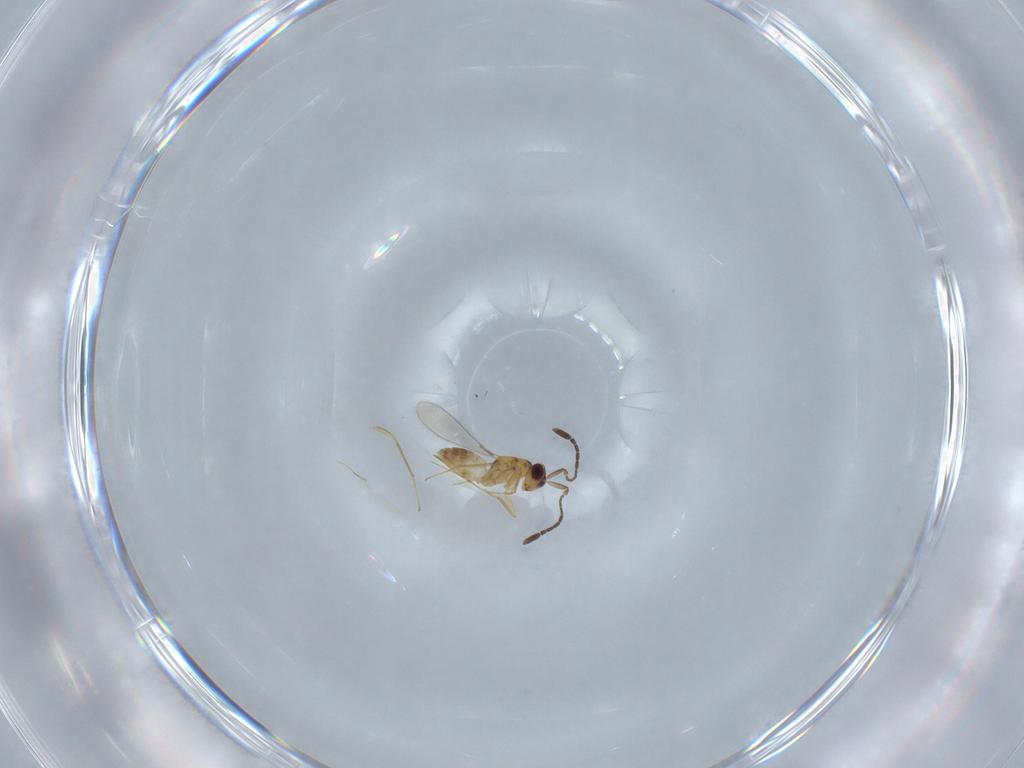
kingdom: Animalia
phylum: Arthropoda
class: Insecta
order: Hymenoptera
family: Mymaridae
